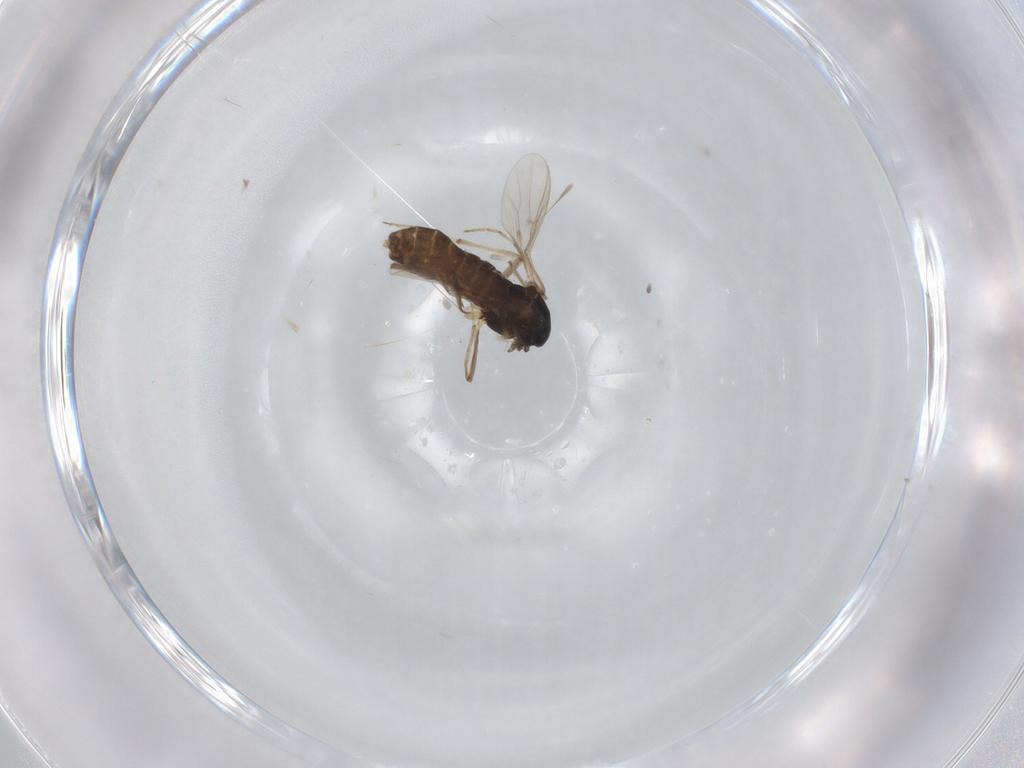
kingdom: Animalia
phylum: Arthropoda
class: Insecta
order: Diptera
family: Chironomidae
